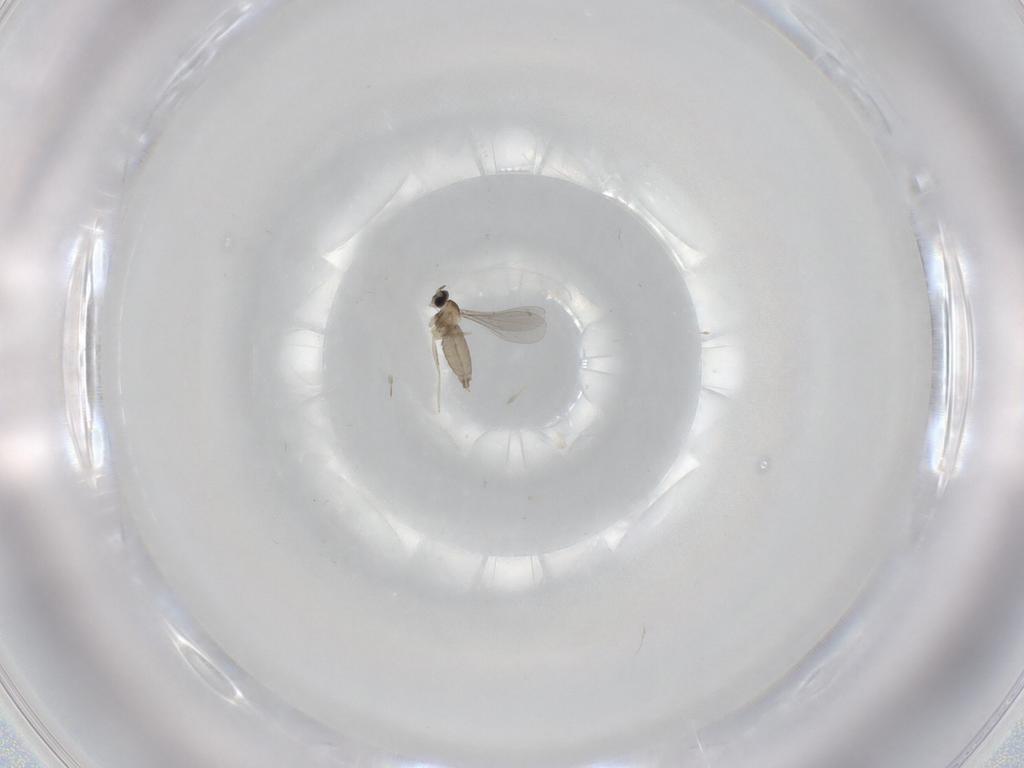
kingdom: Animalia
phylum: Arthropoda
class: Insecta
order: Diptera
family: Cecidomyiidae
